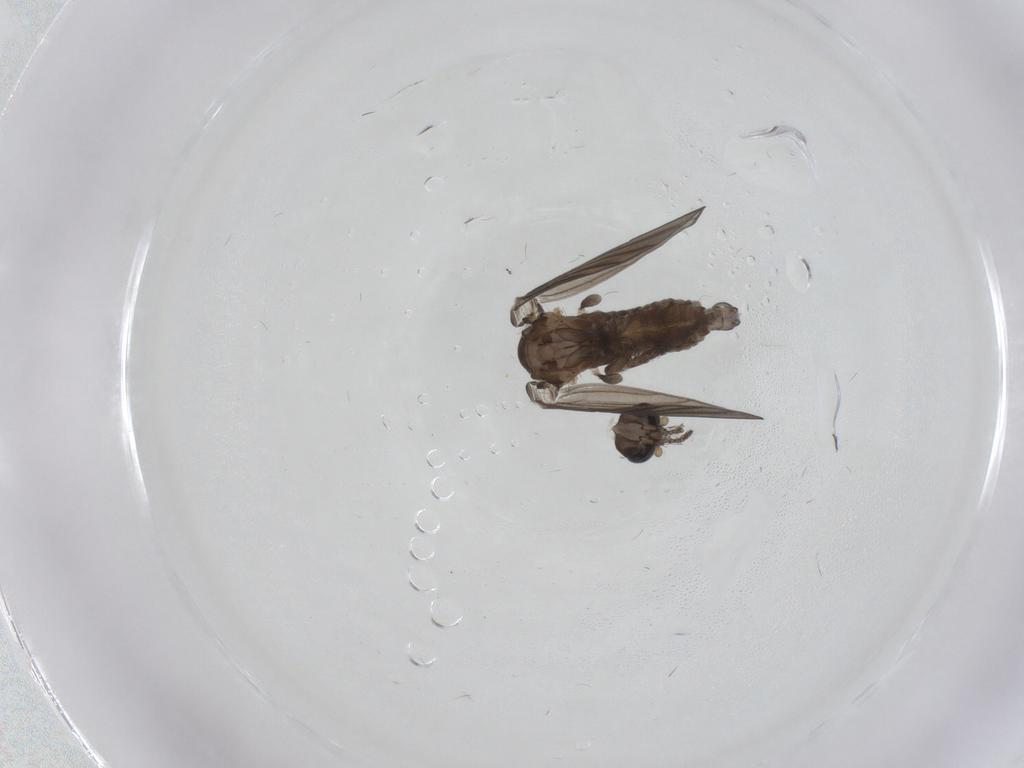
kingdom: Animalia
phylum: Arthropoda
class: Insecta
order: Diptera
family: Psychodidae
